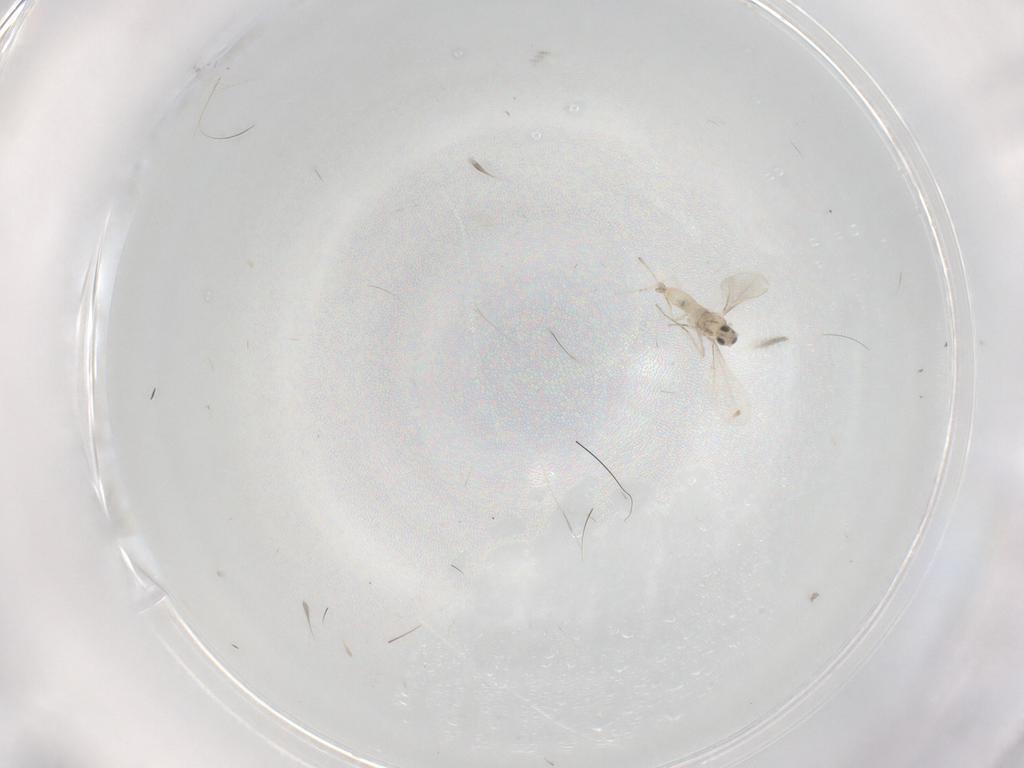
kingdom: Animalia
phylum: Arthropoda
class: Insecta
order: Diptera
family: Cecidomyiidae
